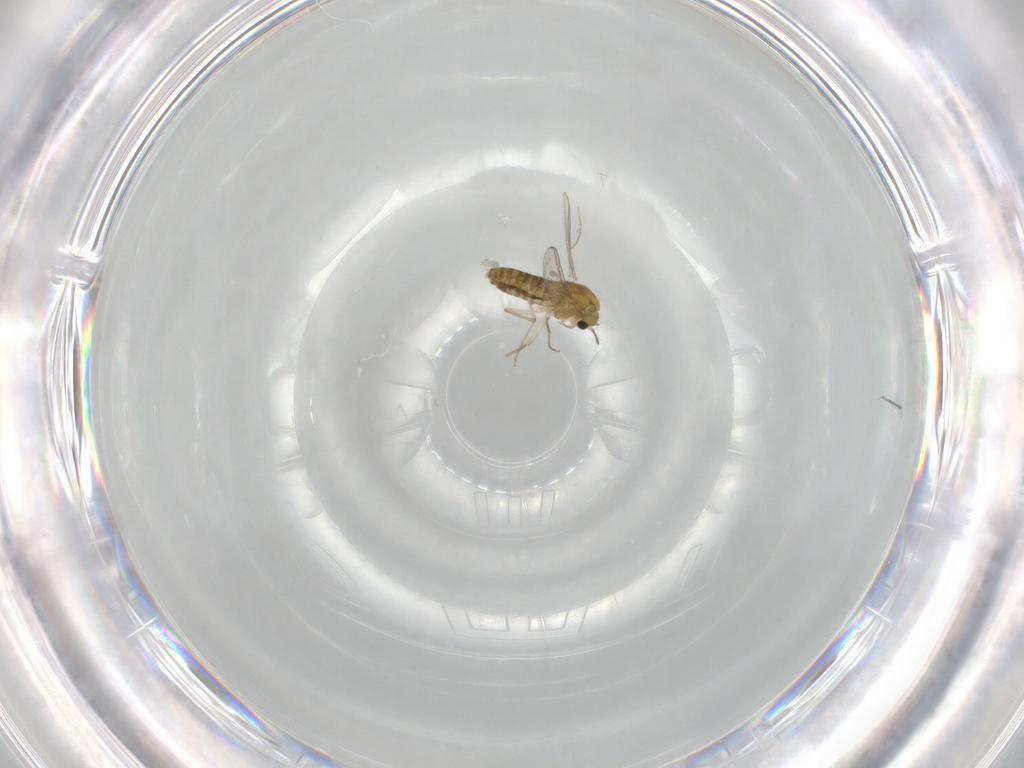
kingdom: Animalia
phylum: Arthropoda
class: Insecta
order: Diptera
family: Chironomidae
